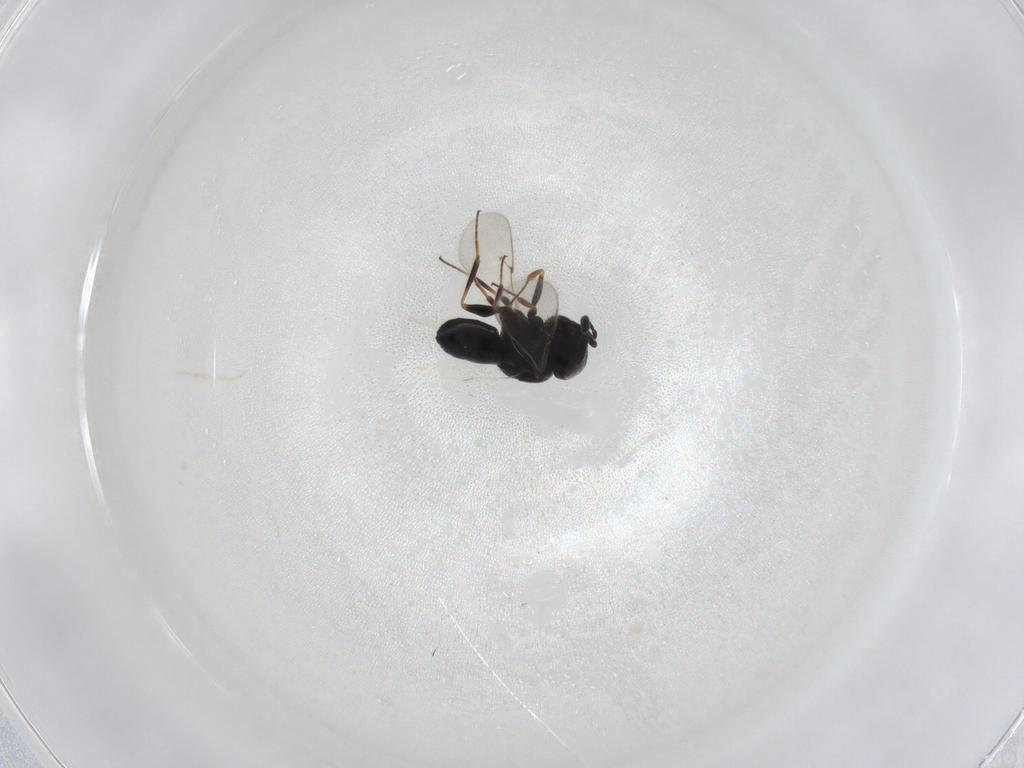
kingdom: Animalia
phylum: Arthropoda
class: Insecta
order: Hymenoptera
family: Scelionidae
